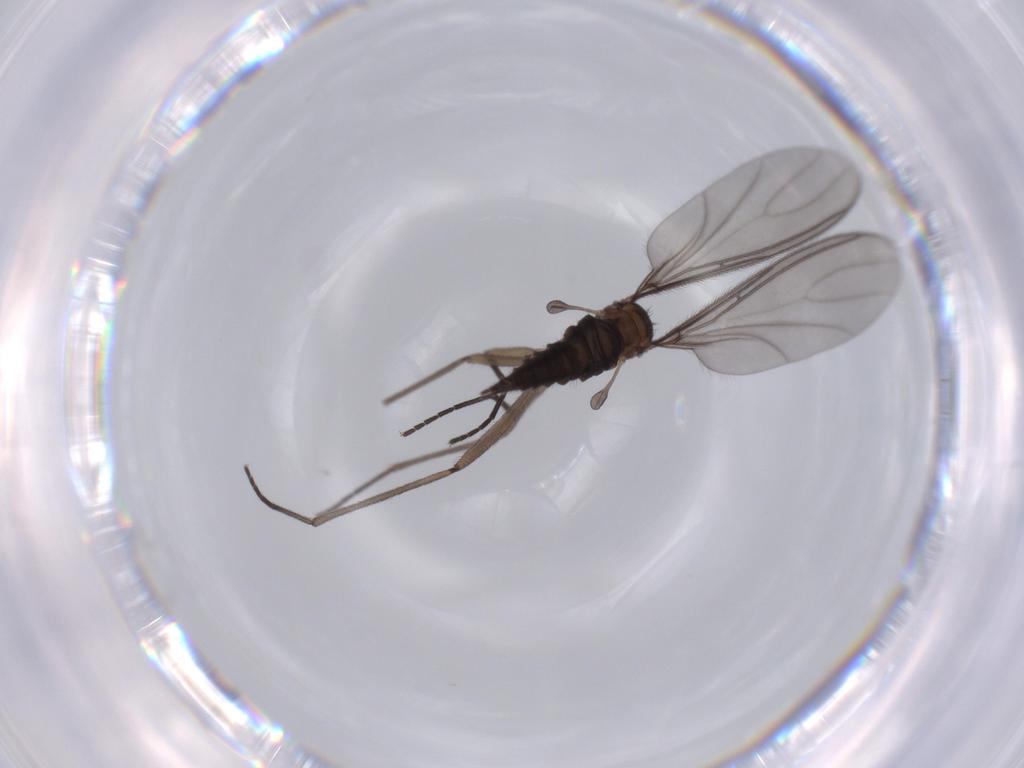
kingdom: Animalia
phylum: Arthropoda
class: Insecta
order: Diptera
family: Sciaridae
